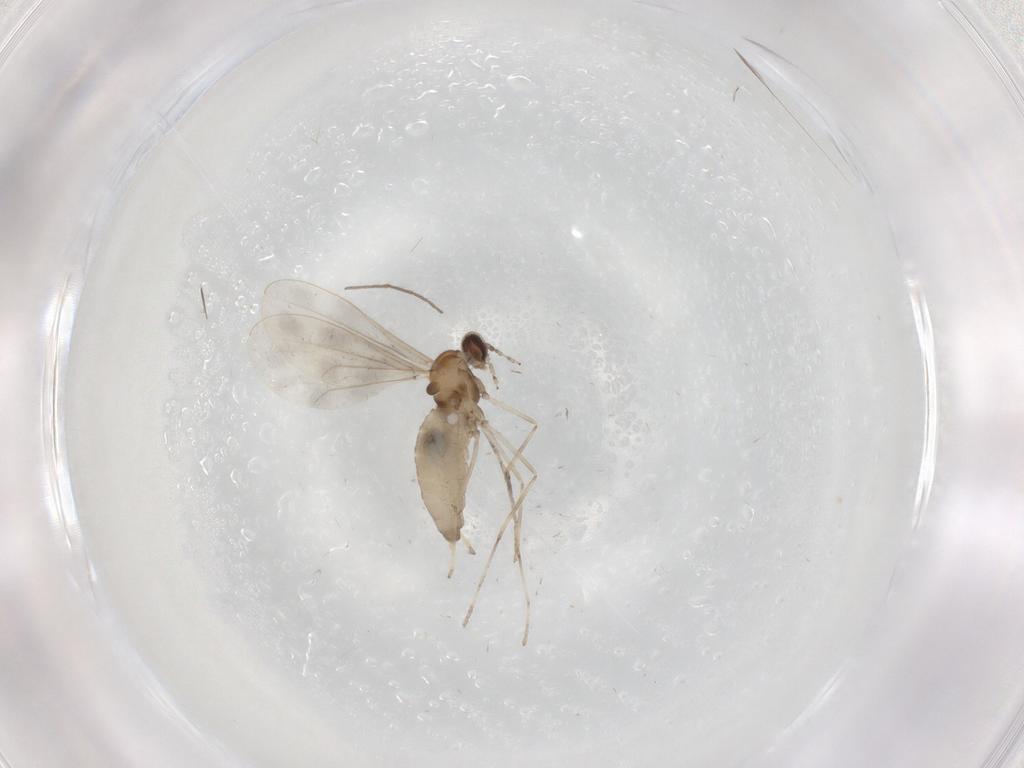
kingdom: Animalia
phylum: Arthropoda
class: Insecta
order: Diptera
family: Cecidomyiidae
